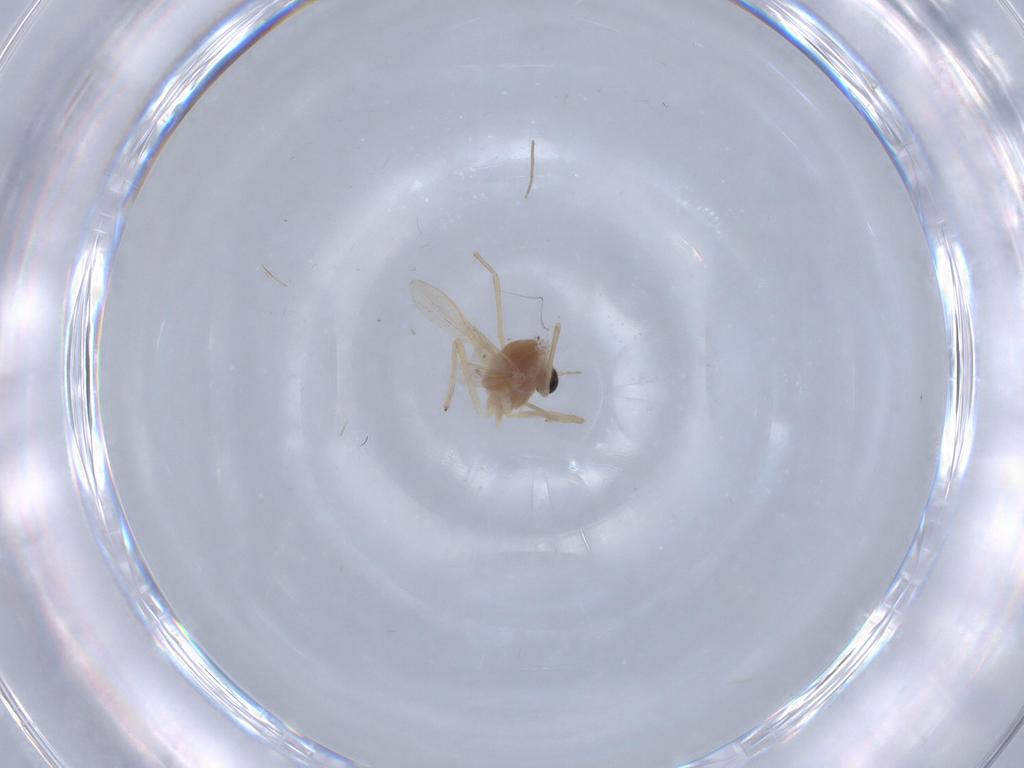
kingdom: Animalia
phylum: Arthropoda
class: Insecta
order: Diptera
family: Chironomidae
